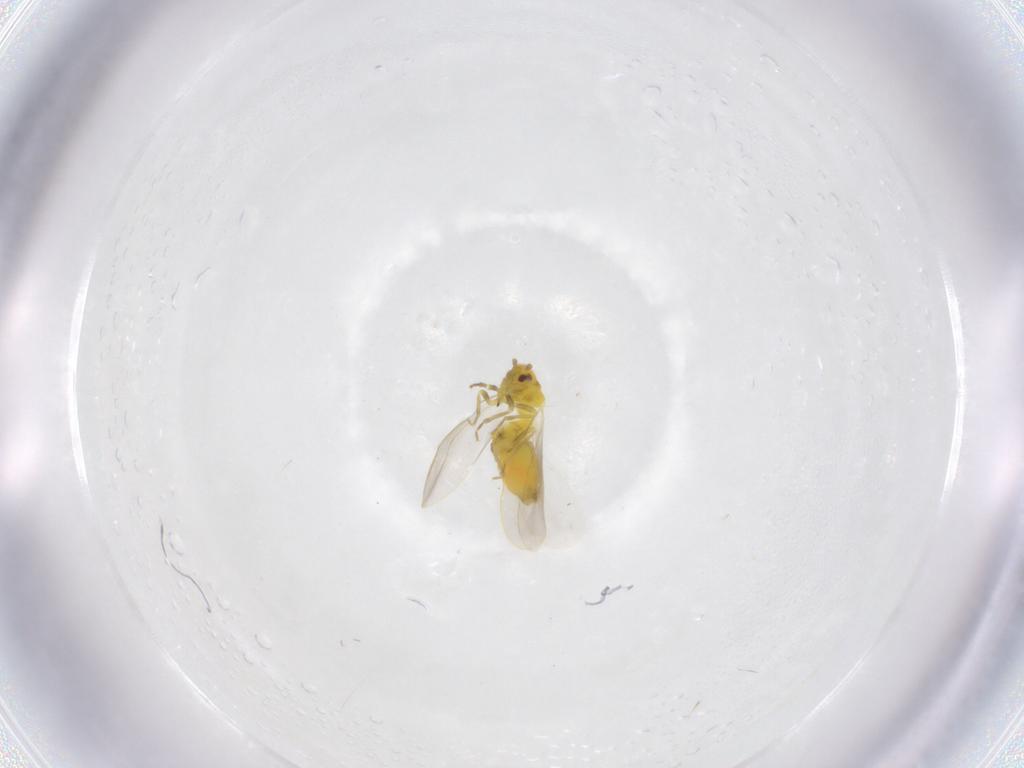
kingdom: Animalia
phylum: Arthropoda
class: Insecta
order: Hemiptera
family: Aleyrodidae
